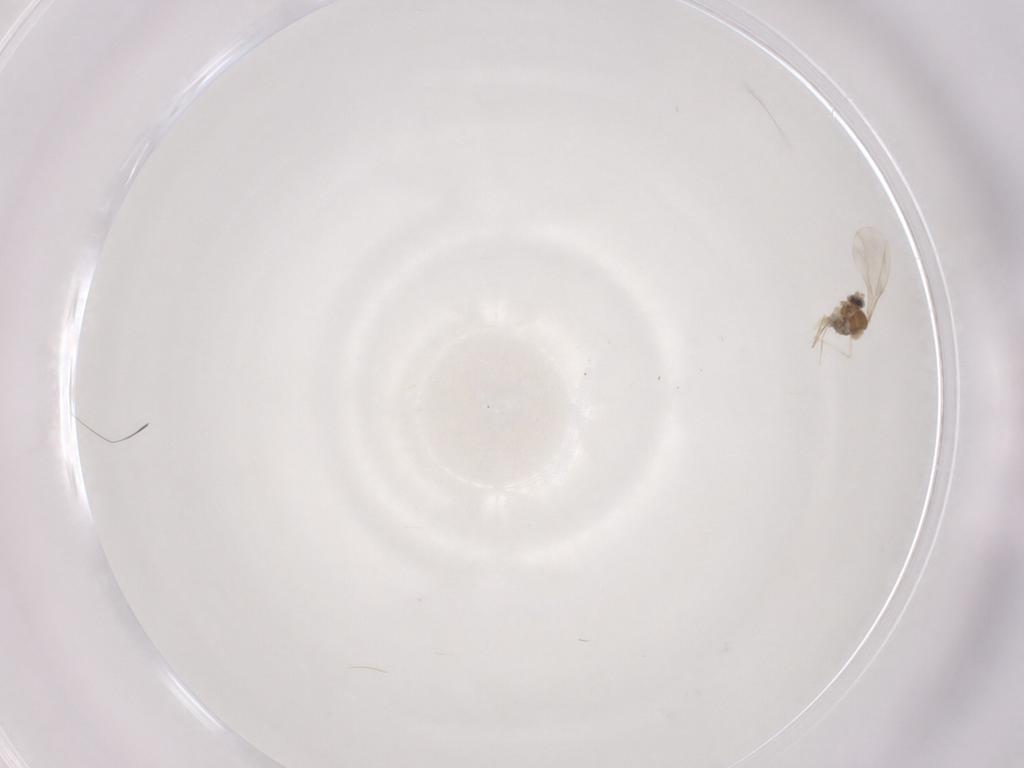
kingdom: Animalia
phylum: Arthropoda
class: Insecta
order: Diptera
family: Cecidomyiidae
